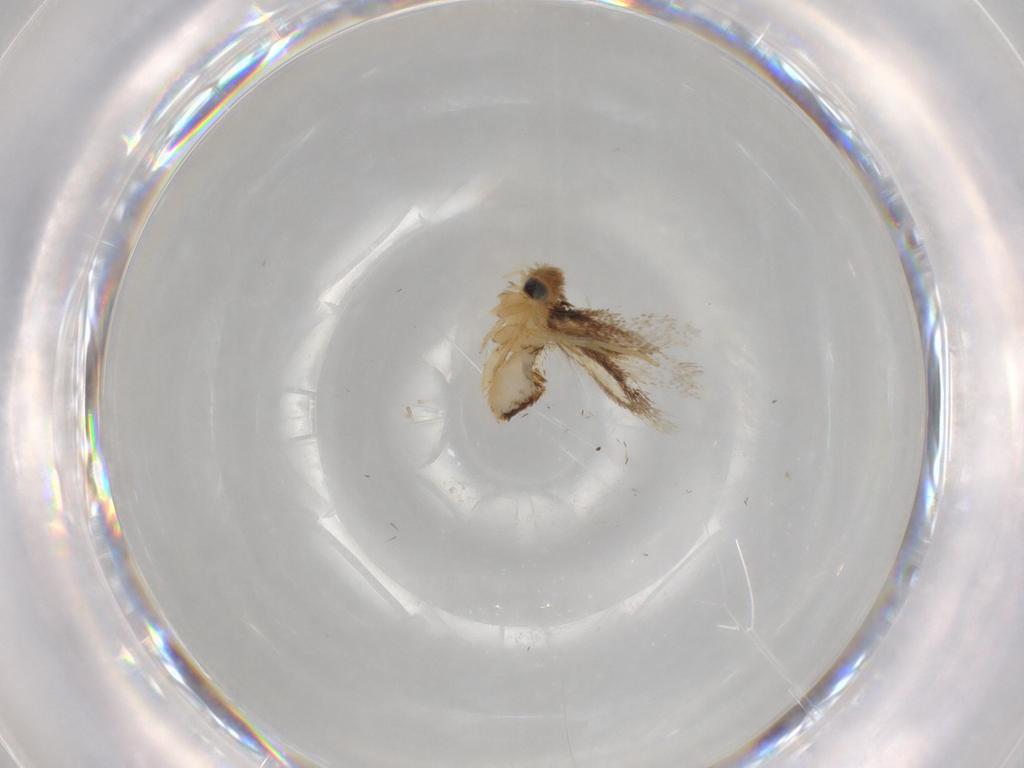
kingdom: Animalia
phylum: Arthropoda
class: Insecta
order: Lepidoptera
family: Nepticulidae
